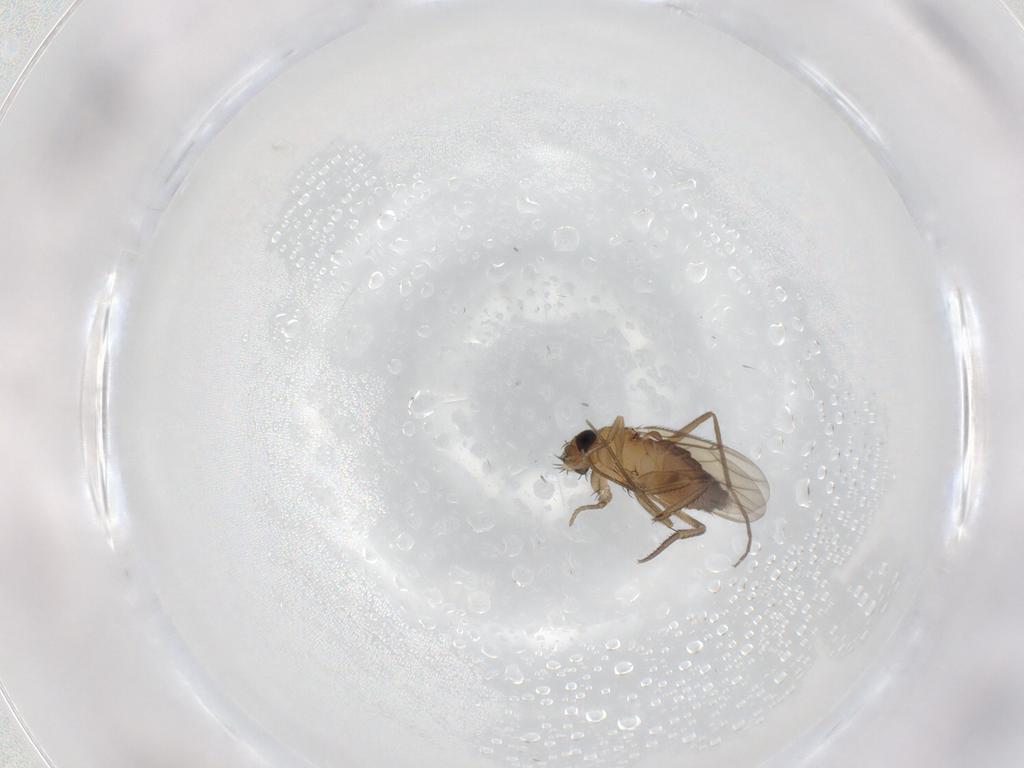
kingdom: Animalia
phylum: Arthropoda
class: Insecta
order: Diptera
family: Phoridae
